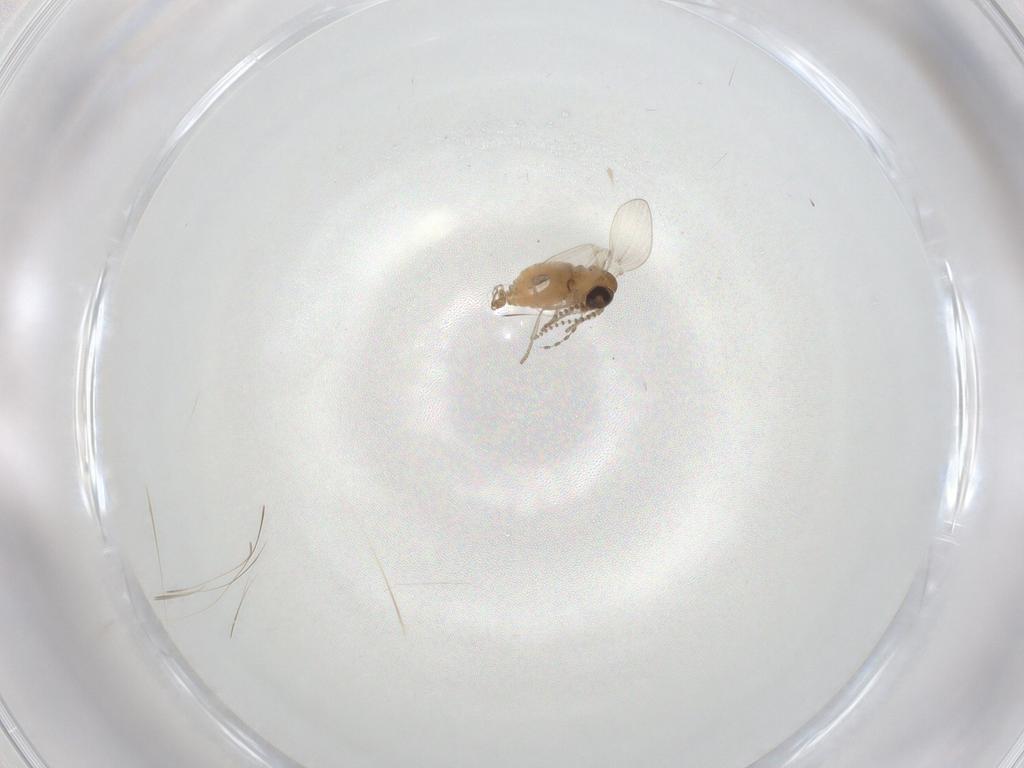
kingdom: Animalia
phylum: Arthropoda
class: Insecta
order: Diptera
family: Psychodidae
